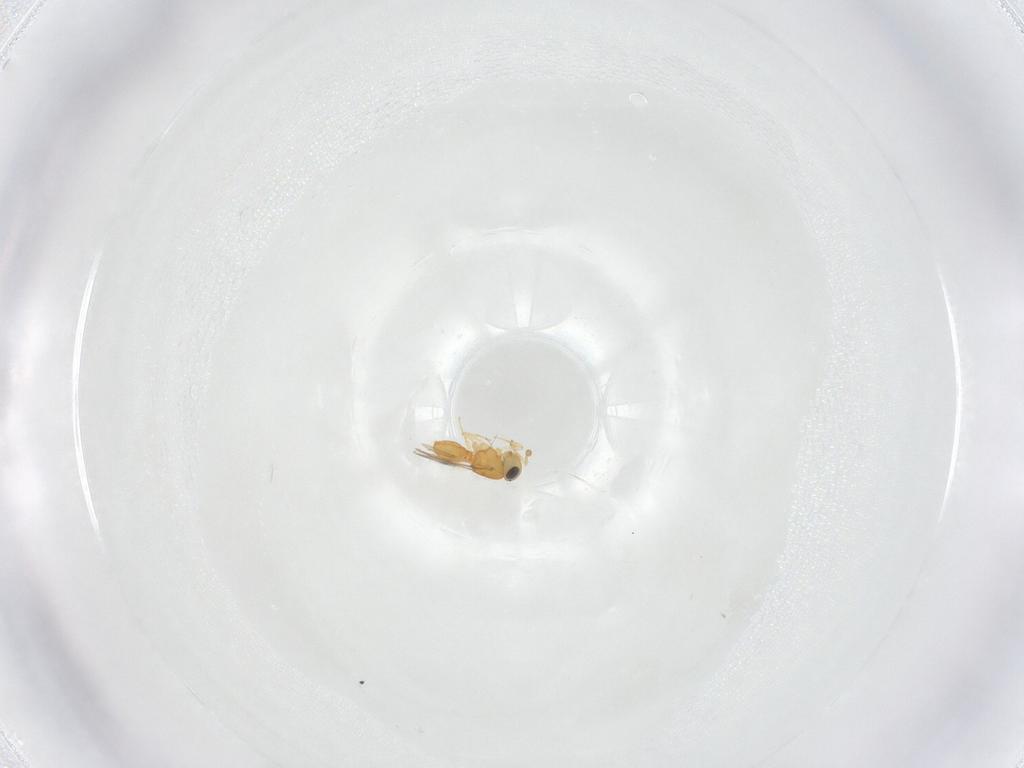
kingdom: Animalia
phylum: Arthropoda
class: Insecta
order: Hymenoptera
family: Scelionidae
